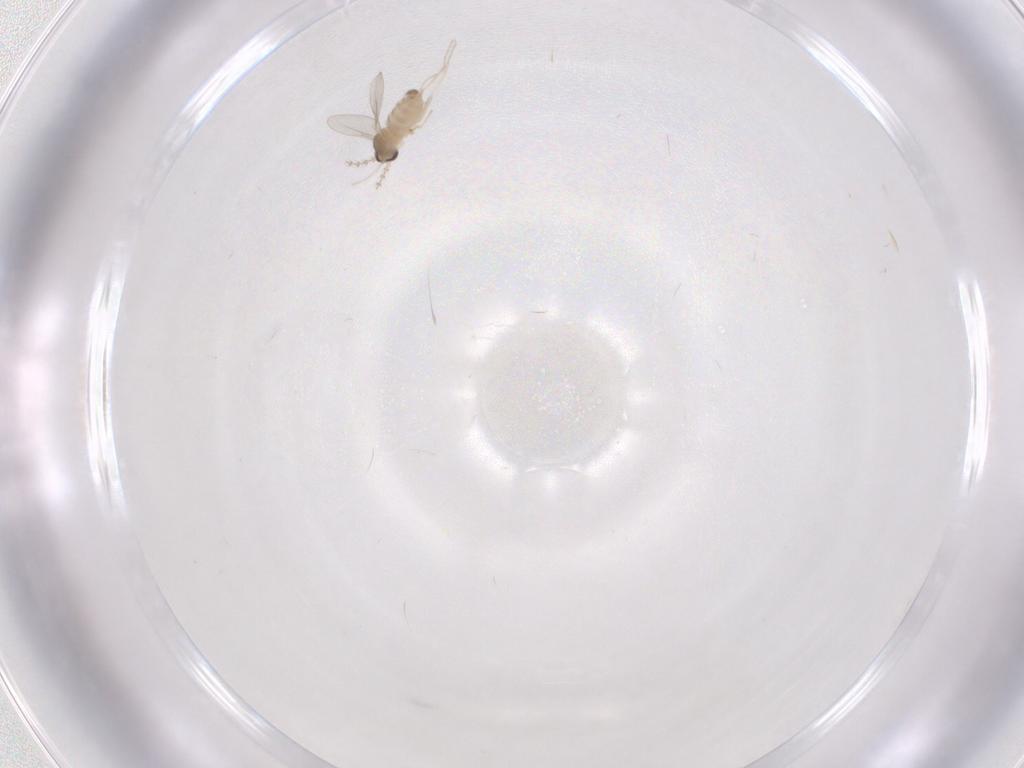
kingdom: Animalia
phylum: Arthropoda
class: Insecta
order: Diptera
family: Cecidomyiidae
